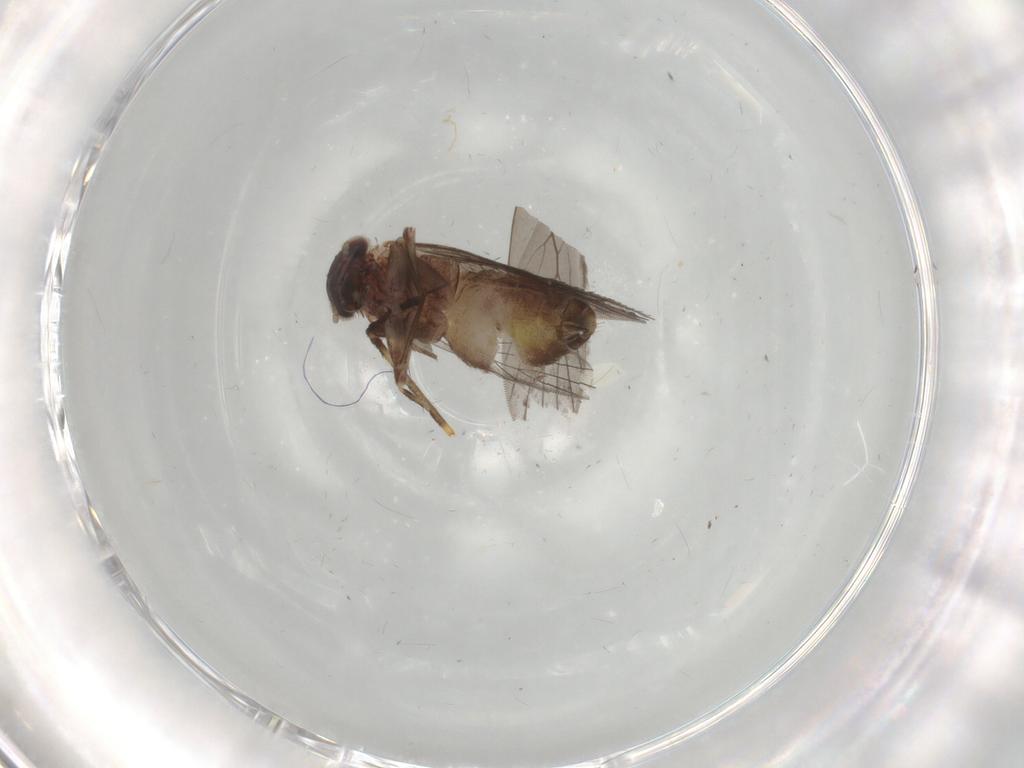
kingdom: Animalia
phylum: Arthropoda
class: Insecta
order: Psocodea
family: Lepidopsocidae
